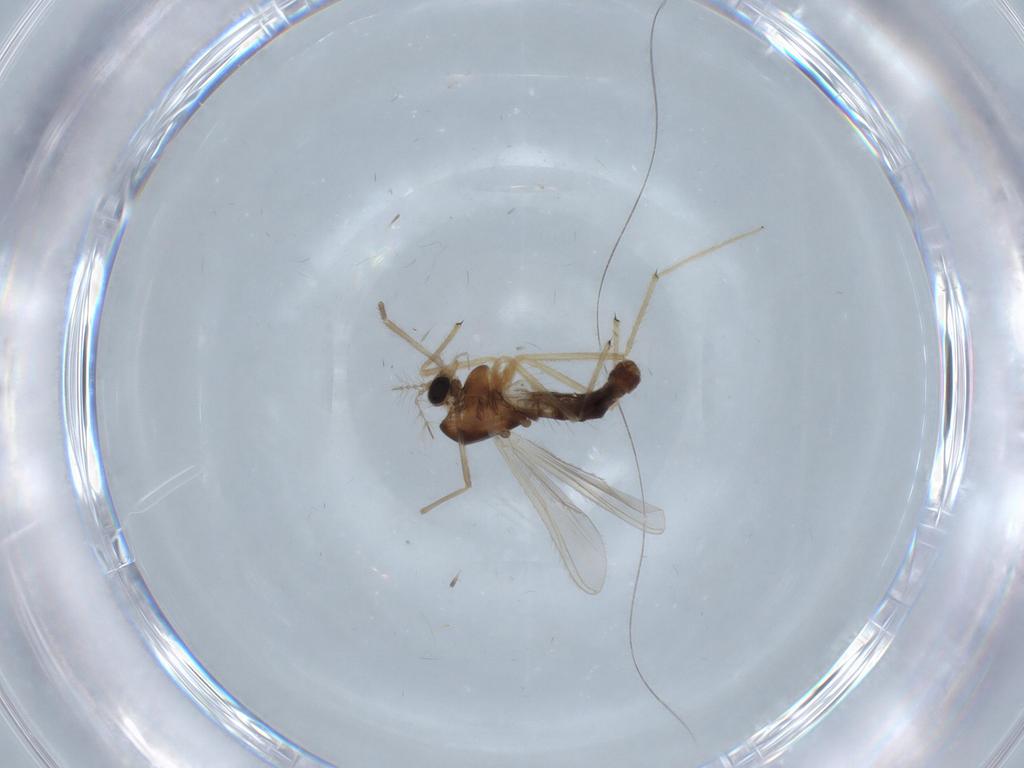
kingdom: Animalia
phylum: Arthropoda
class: Insecta
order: Diptera
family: Chironomidae
